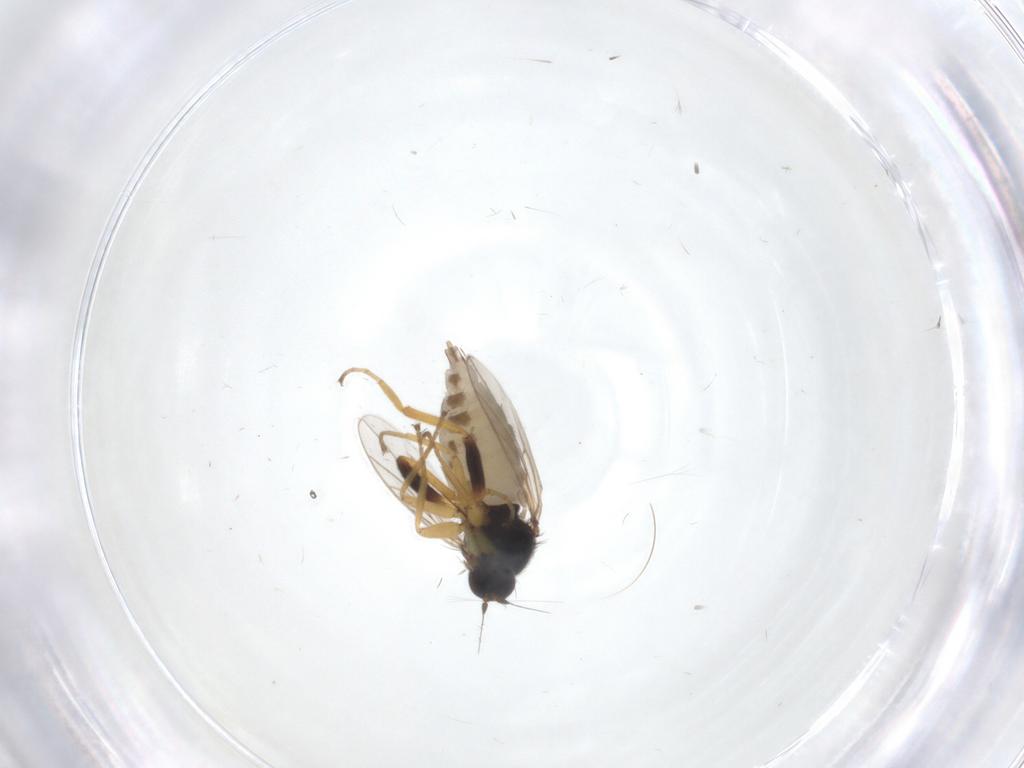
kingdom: Animalia
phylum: Arthropoda
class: Insecta
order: Diptera
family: Hybotidae
